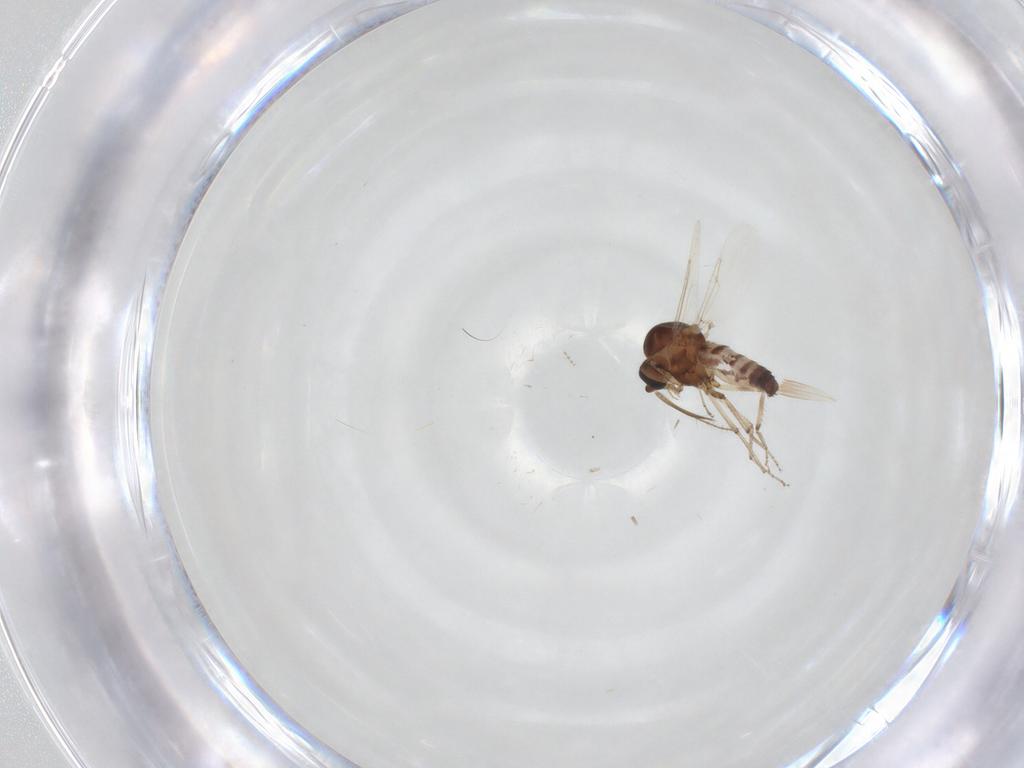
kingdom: Animalia
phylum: Arthropoda
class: Insecta
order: Diptera
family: Ceratopogonidae
